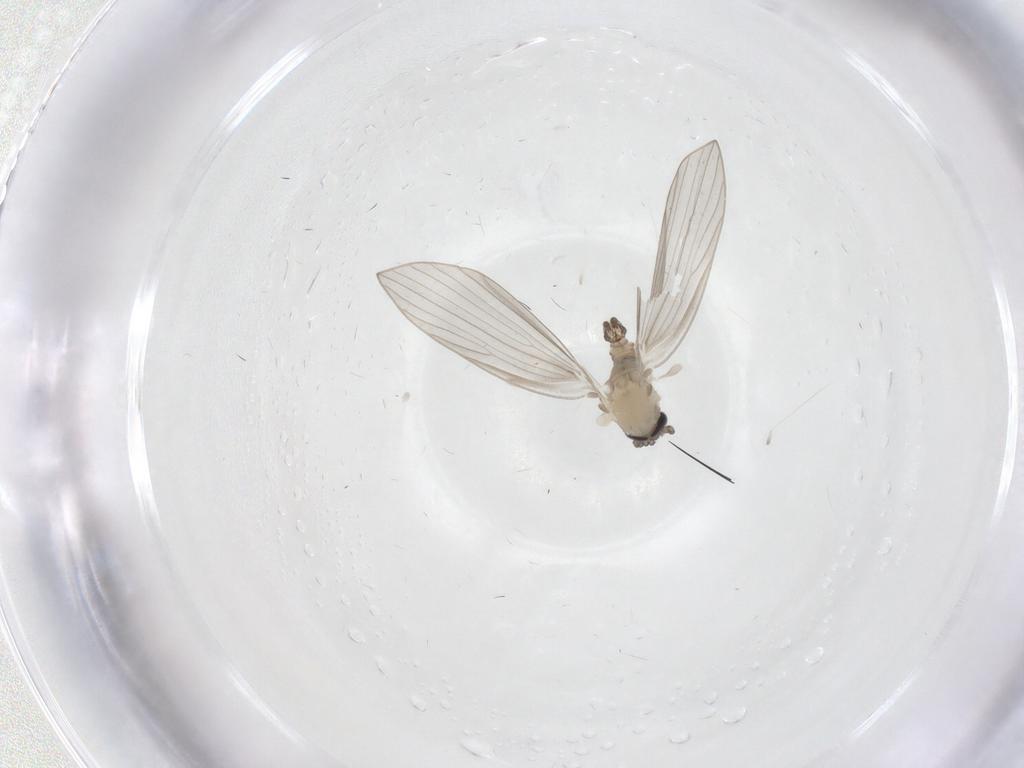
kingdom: Animalia
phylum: Arthropoda
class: Insecta
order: Diptera
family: Psychodidae
